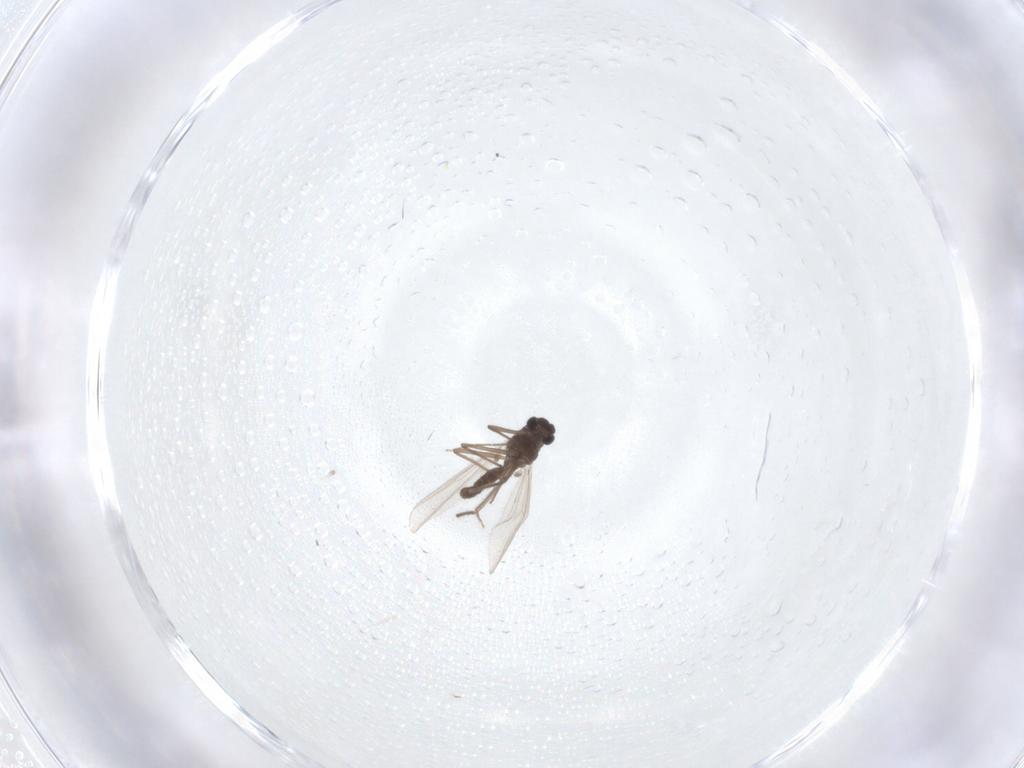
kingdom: Animalia
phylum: Arthropoda
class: Insecta
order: Diptera
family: Chironomidae
